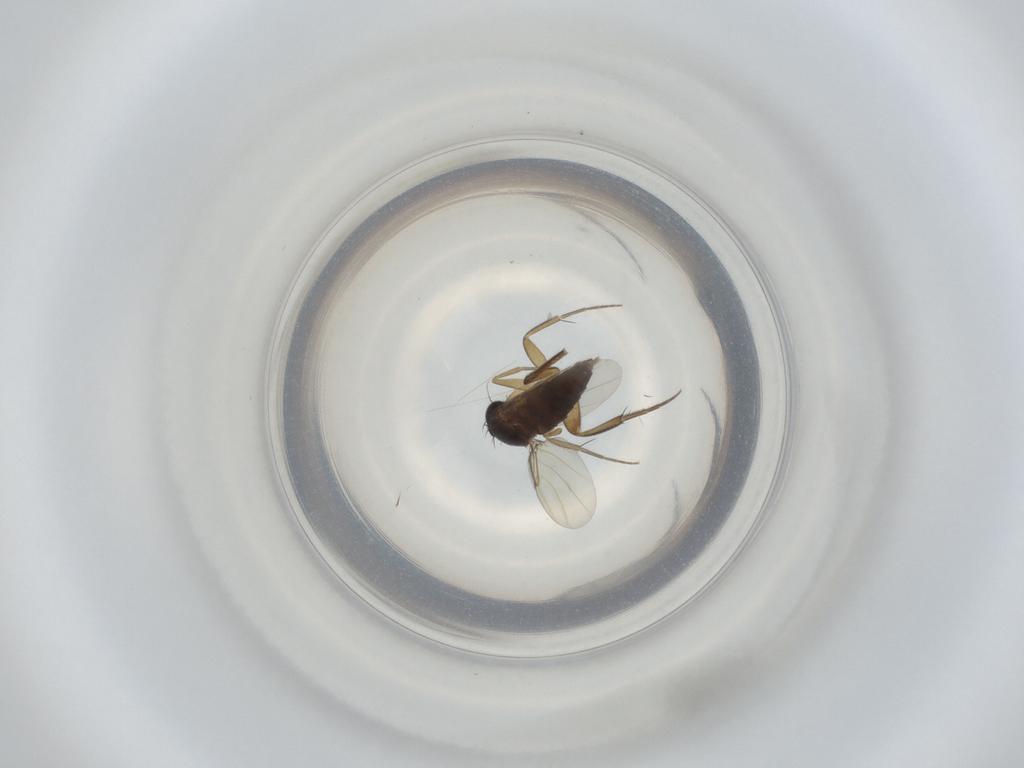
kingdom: Animalia
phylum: Arthropoda
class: Insecta
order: Diptera
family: Phoridae
